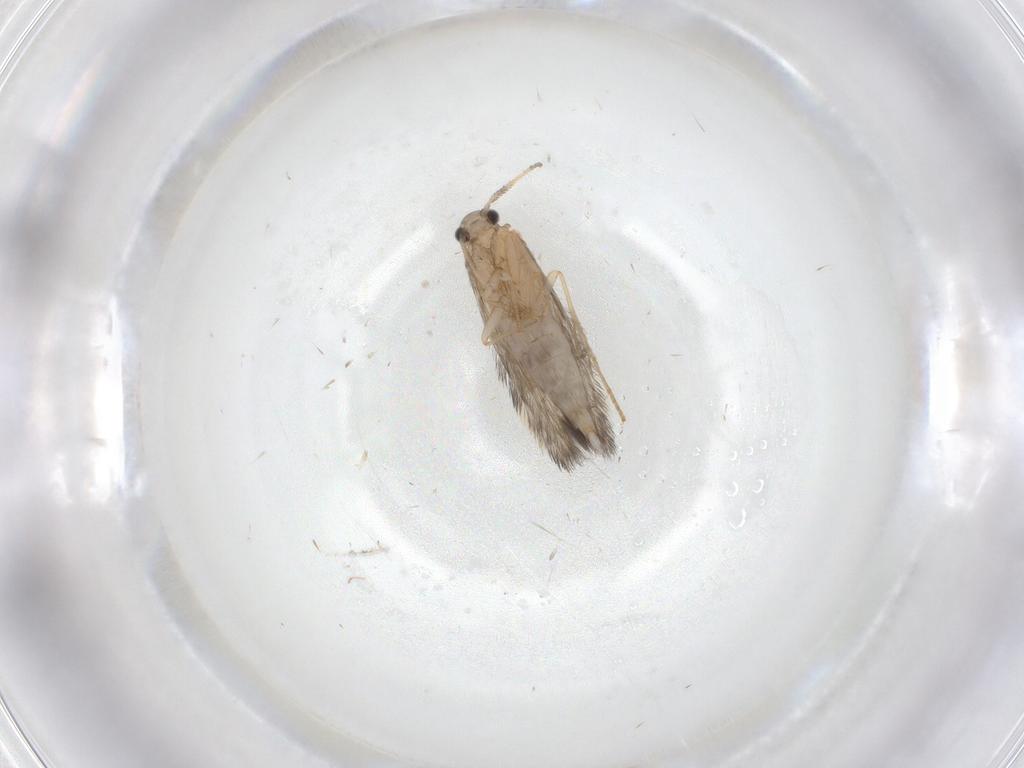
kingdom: Animalia
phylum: Arthropoda
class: Insecta
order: Trichoptera
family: Hydroptilidae
